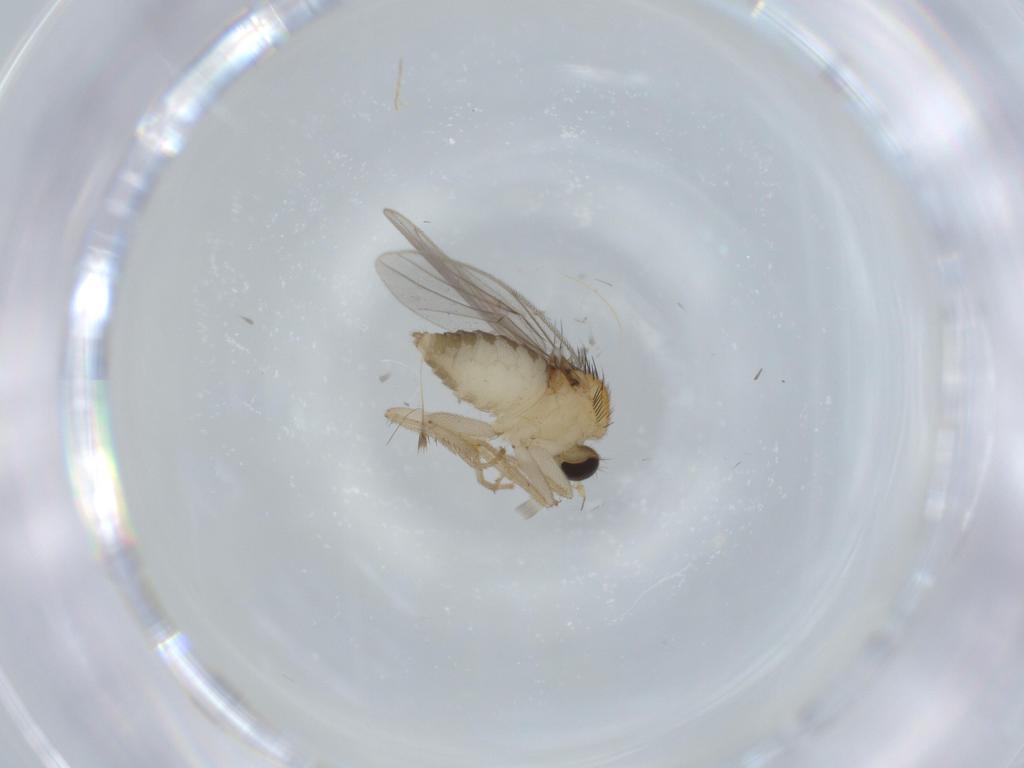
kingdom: Animalia
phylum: Arthropoda
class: Insecta
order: Diptera
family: Hybotidae
